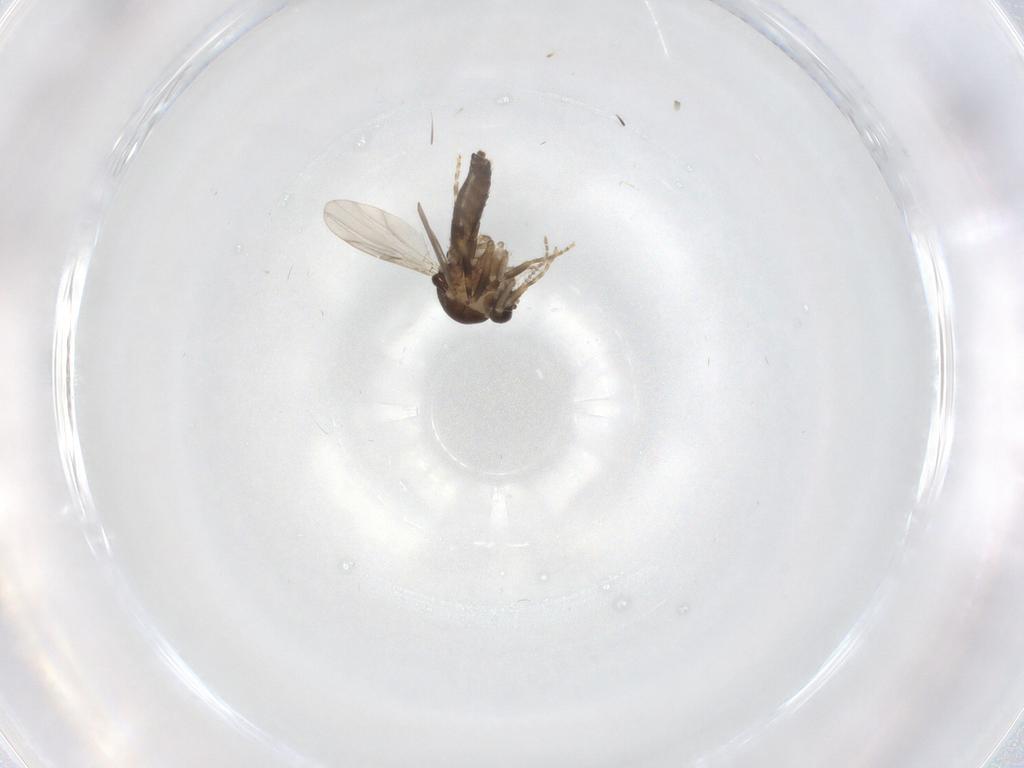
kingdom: Animalia
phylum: Arthropoda
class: Insecta
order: Diptera
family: Ceratopogonidae
